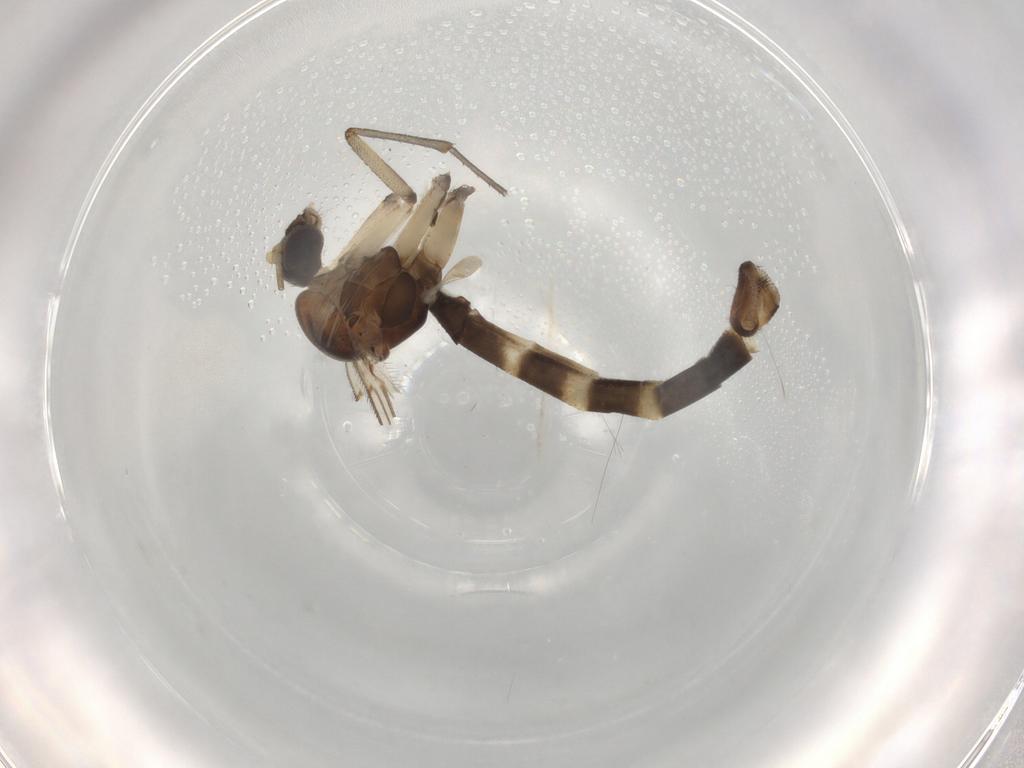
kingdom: Animalia
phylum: Arthropoda
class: Insecta
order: Diptera
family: Mycetophilidae
